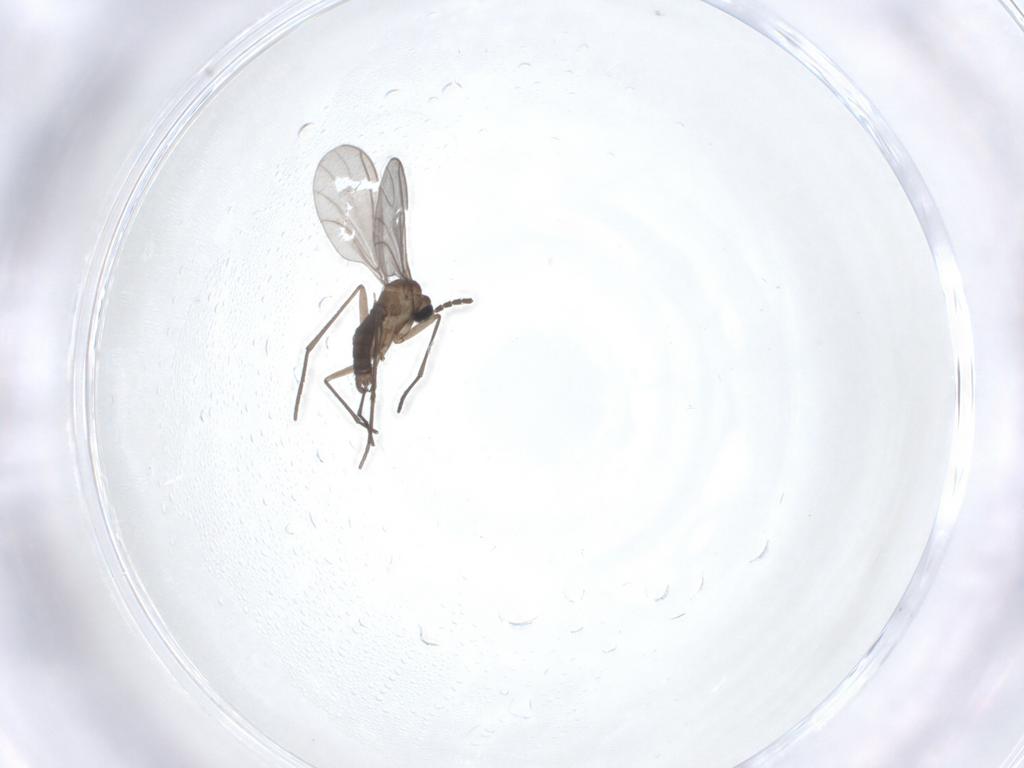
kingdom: Animalia
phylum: Arthropoda
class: Insecta
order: Diptera
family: Sciaridae
